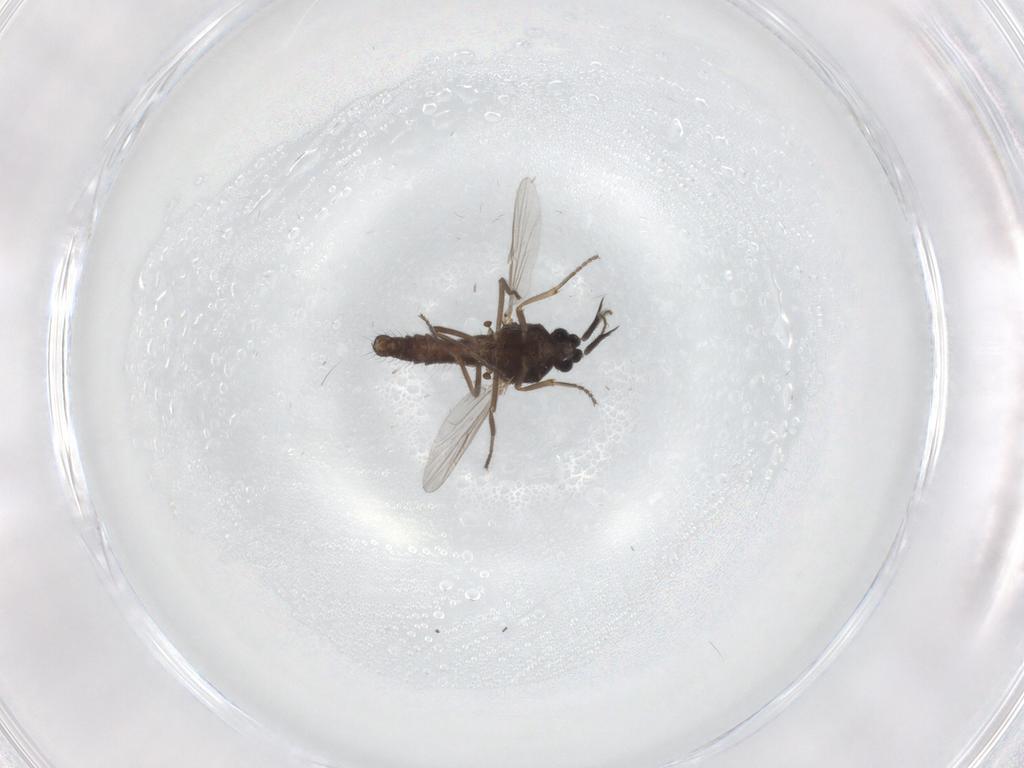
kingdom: Animalia
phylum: Arthropoda
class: Insecta
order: Diptera
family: Ceratopogonidae
